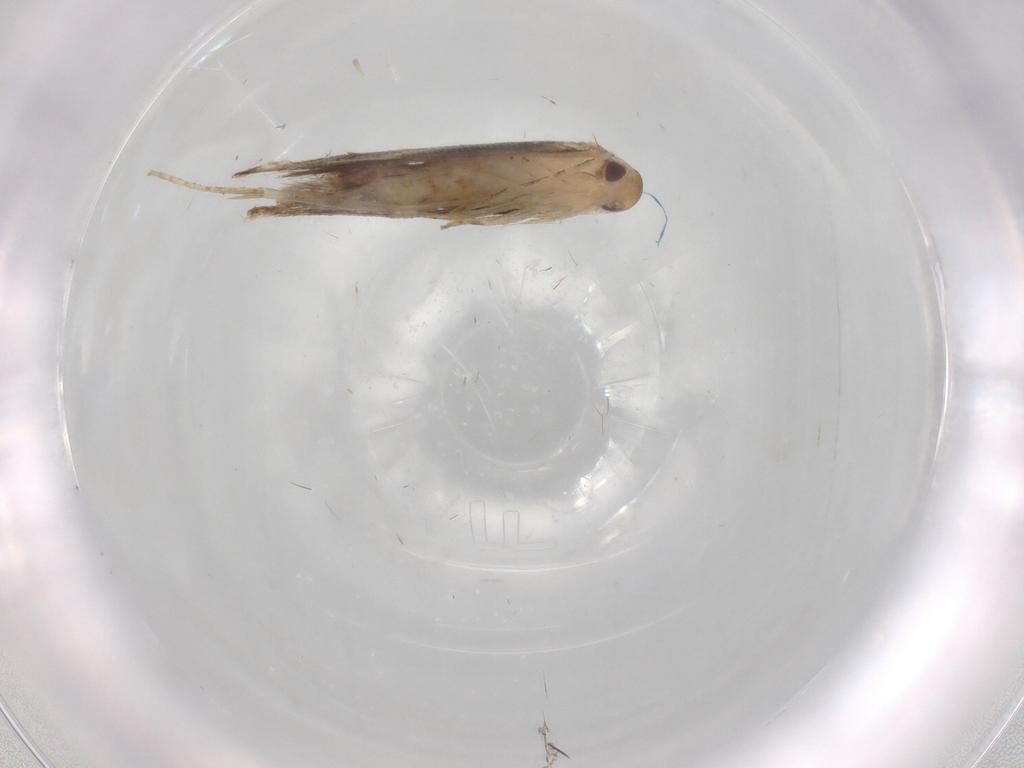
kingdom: Animalia
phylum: Arthropoda
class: Insecta
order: Lepidoptera
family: Momphidae
